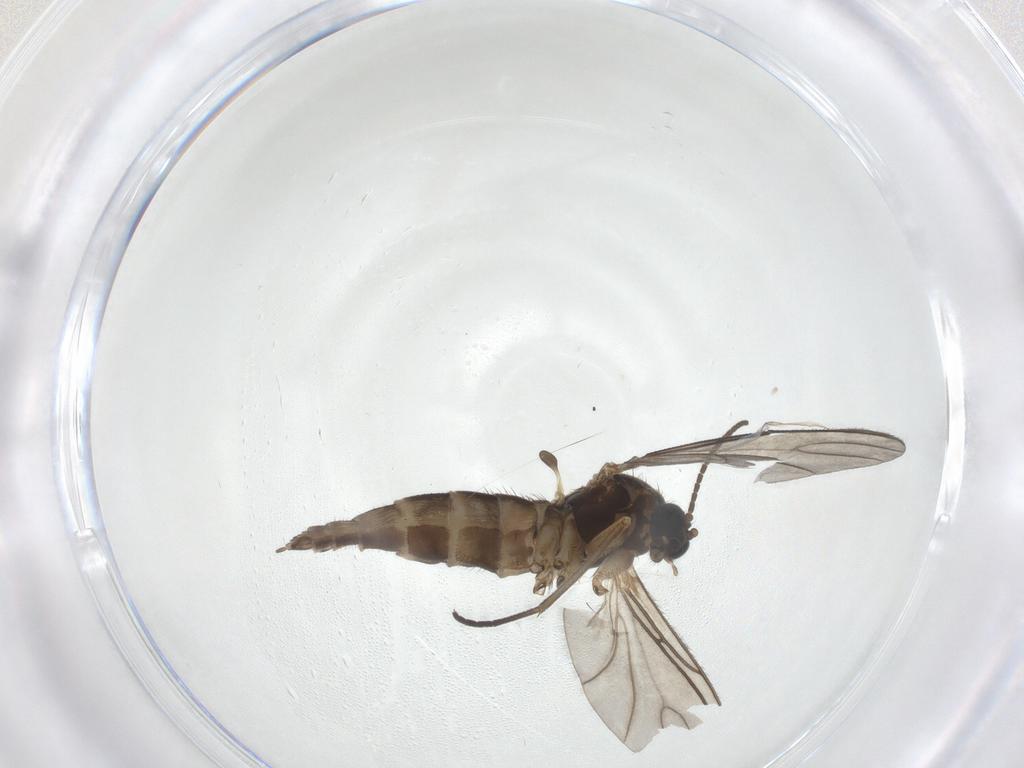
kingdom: Animalia
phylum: Arthropoda
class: Insecta
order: Diptera
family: Sciaridae
